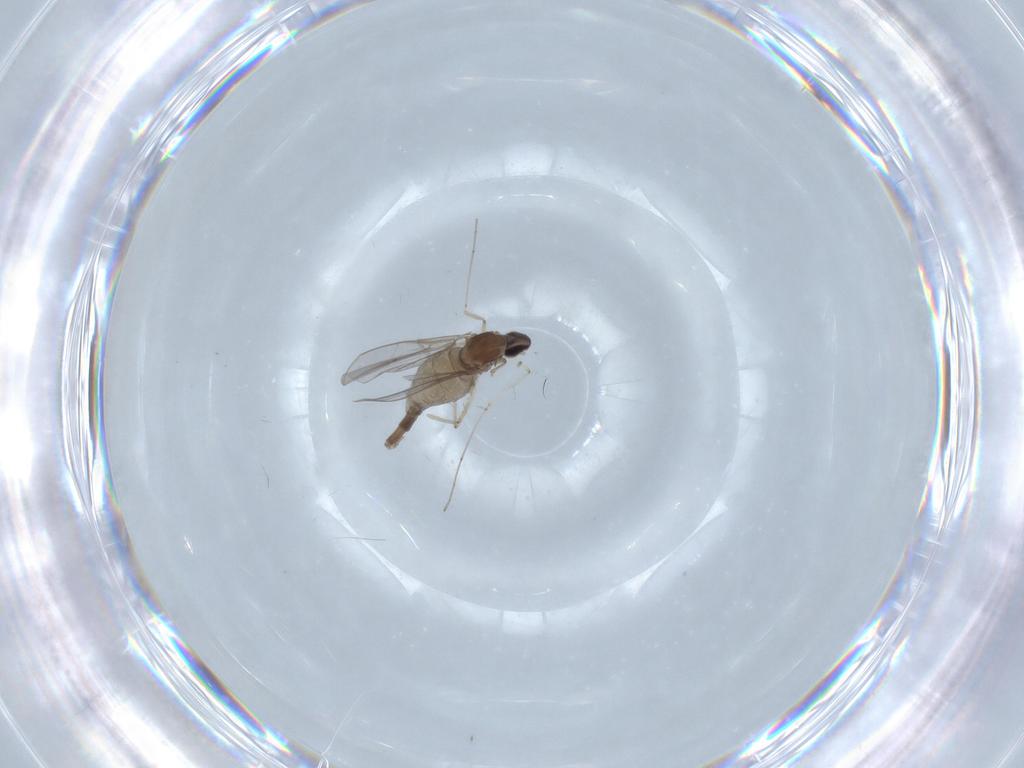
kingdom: Animalia
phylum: Arthropoda
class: Insecta
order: Diptera
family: Cecidomyiidae
